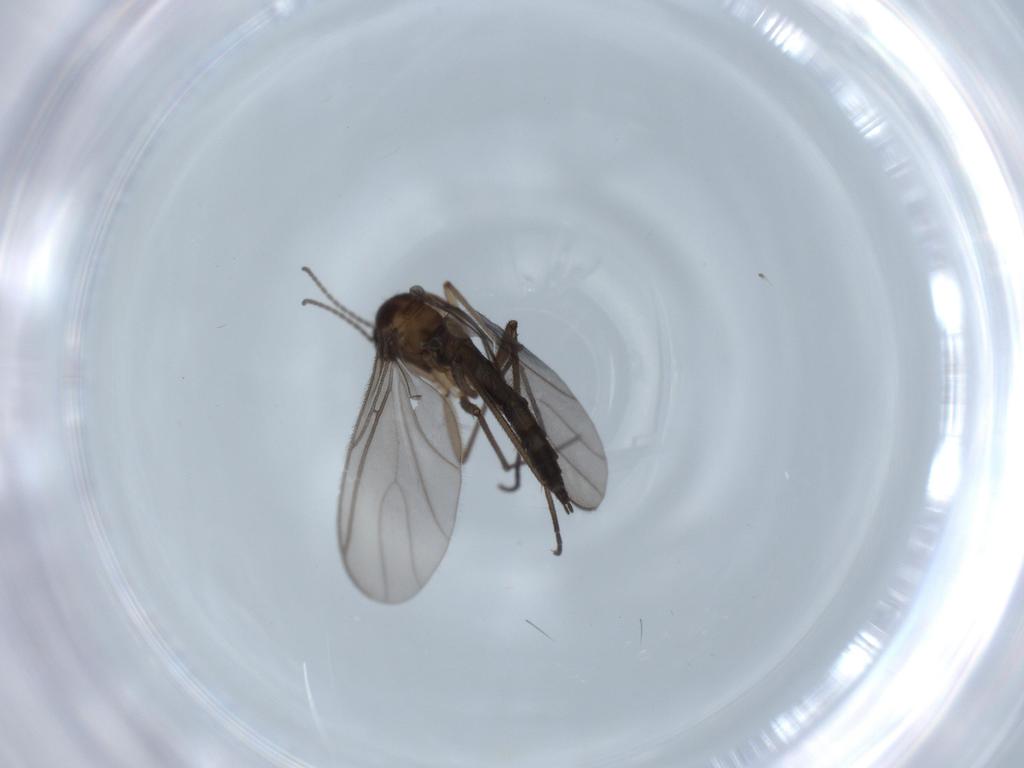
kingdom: Animalia
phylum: Arthropoda
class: Insecta
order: Diptera
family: Sciaridae
